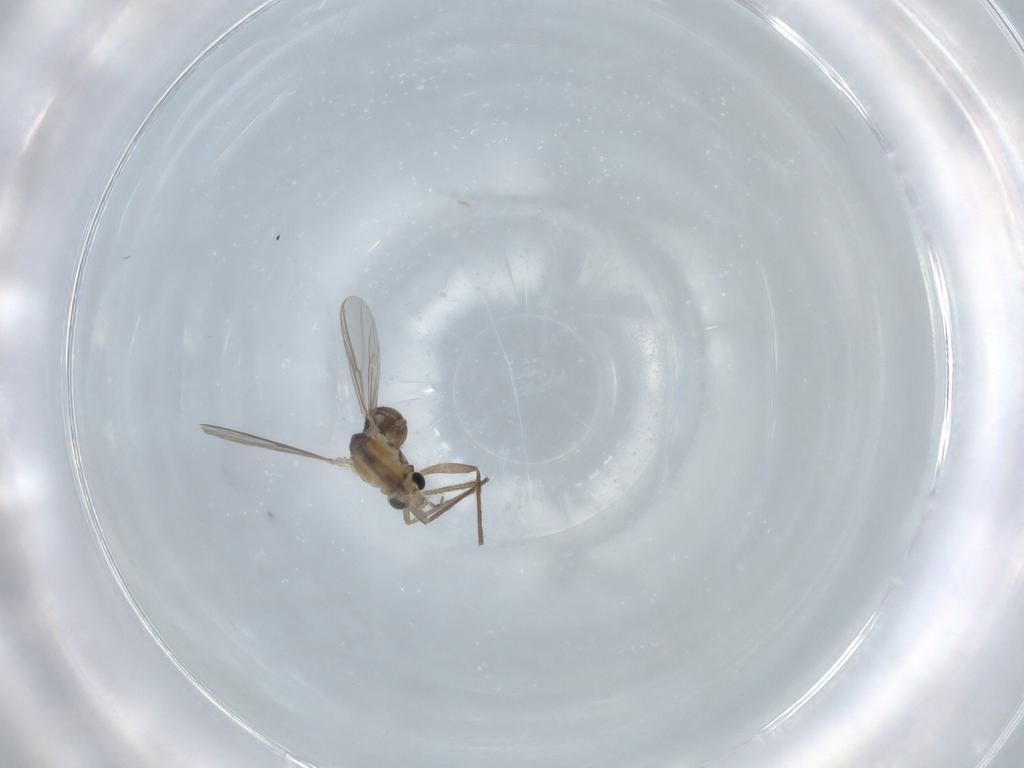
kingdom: Animalia
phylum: Arthropoda
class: Insecta
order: Diptera
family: Chironomidae
